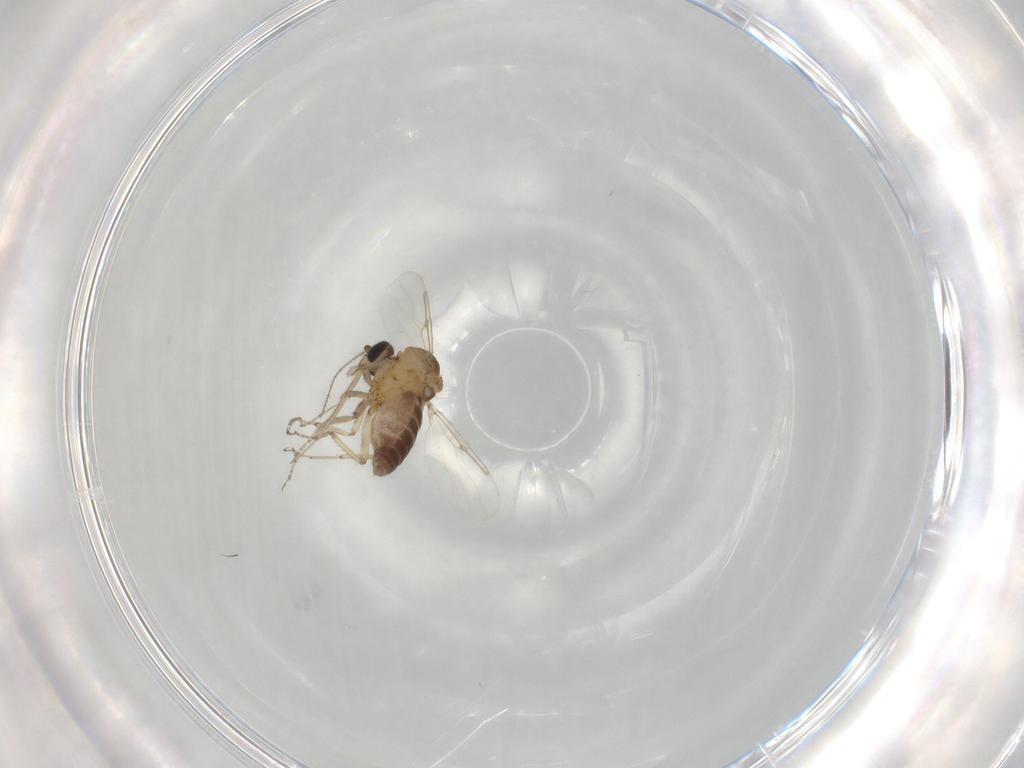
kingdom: Animalia
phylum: Arthropoda
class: Insecta
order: Diptera
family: Ceratopogonidae
